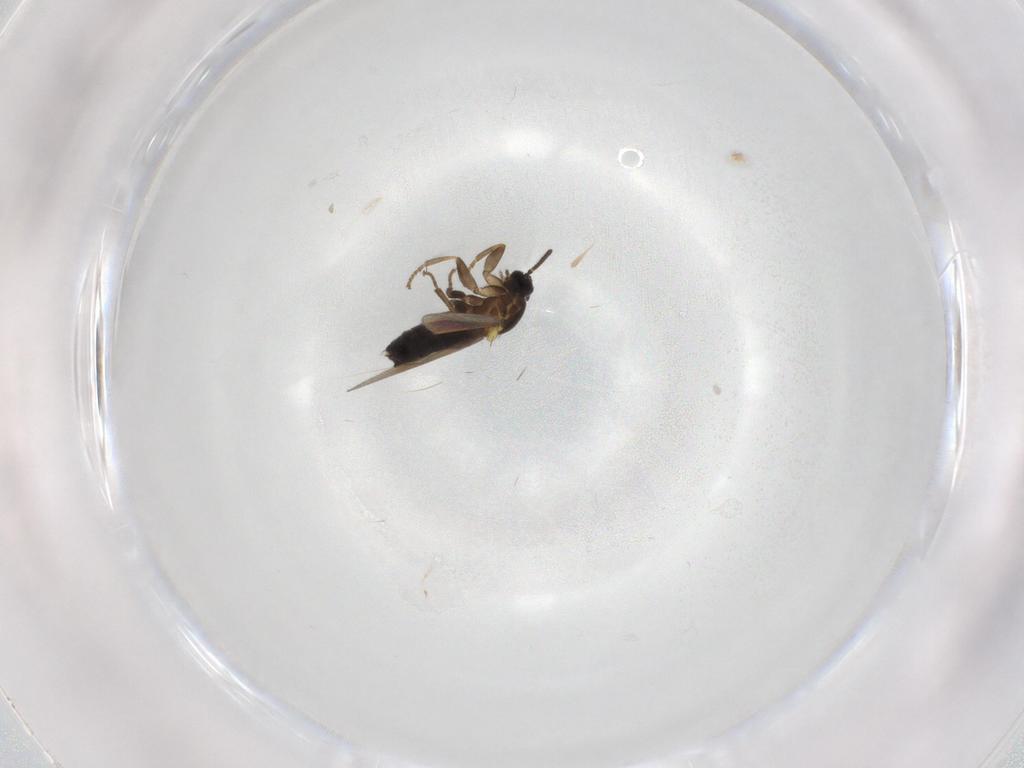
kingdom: Animalia
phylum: Arthropoda
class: Insecta
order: Diptera
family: Scatopsidae
